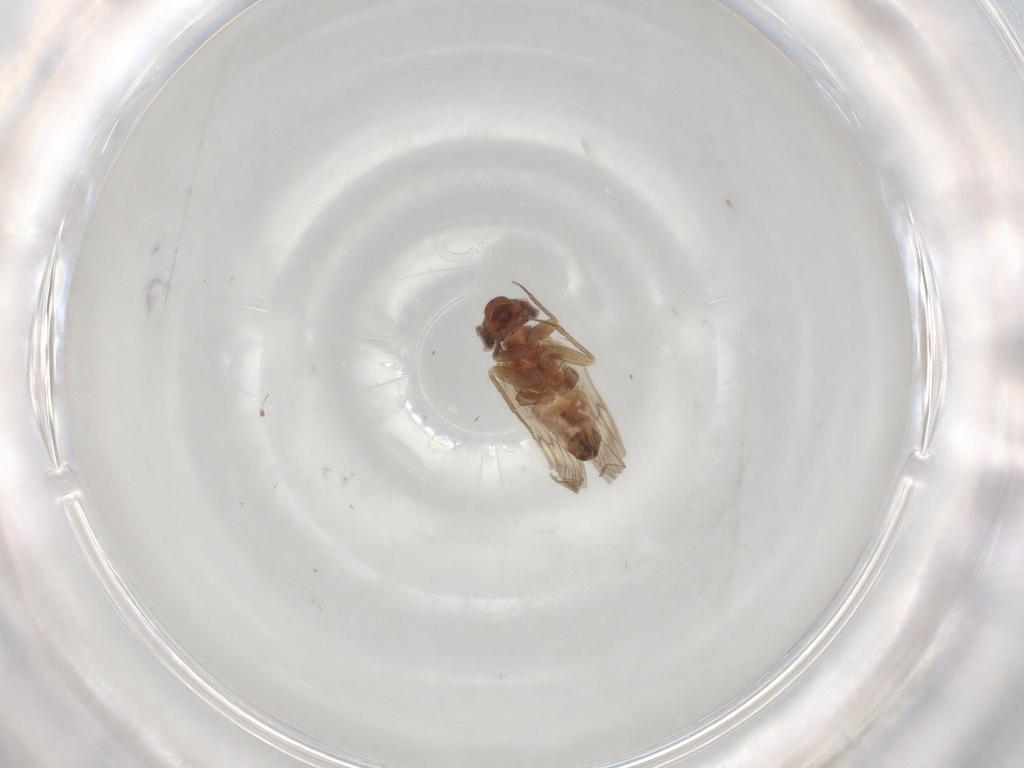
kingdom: Animalia
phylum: Arthropoda
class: Insecta
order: Psocodea
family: Lepidopsocidae
